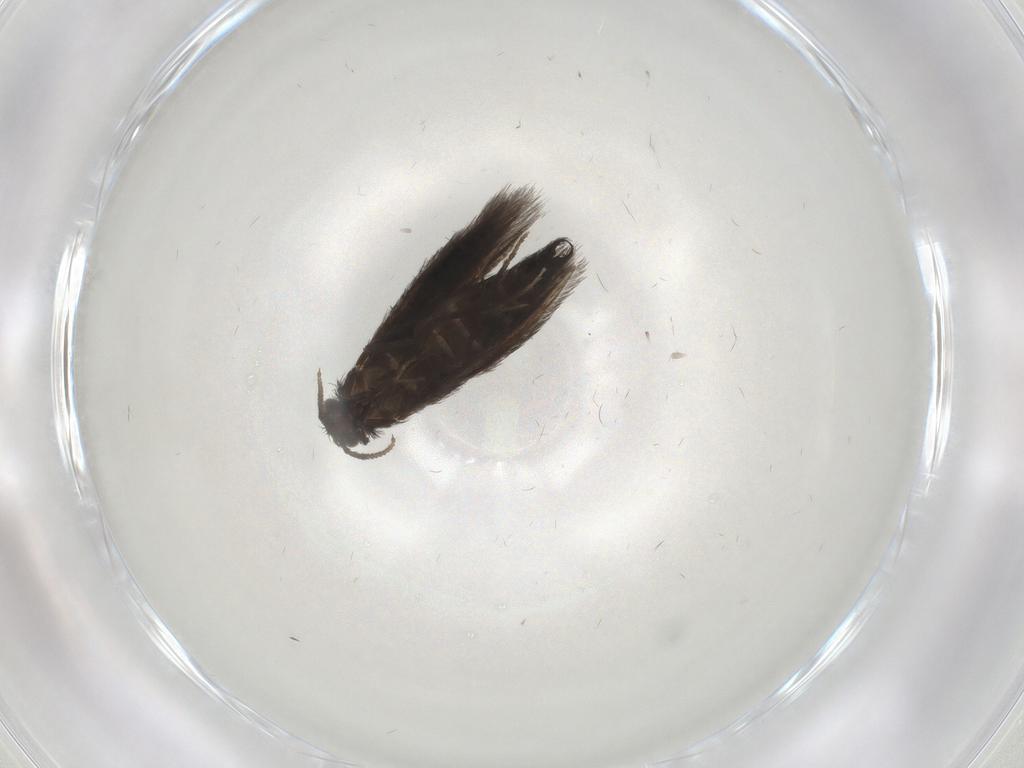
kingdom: Animalia
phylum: Arthropoda
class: Insecta
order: Trichoptera
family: Hydroptilidae
